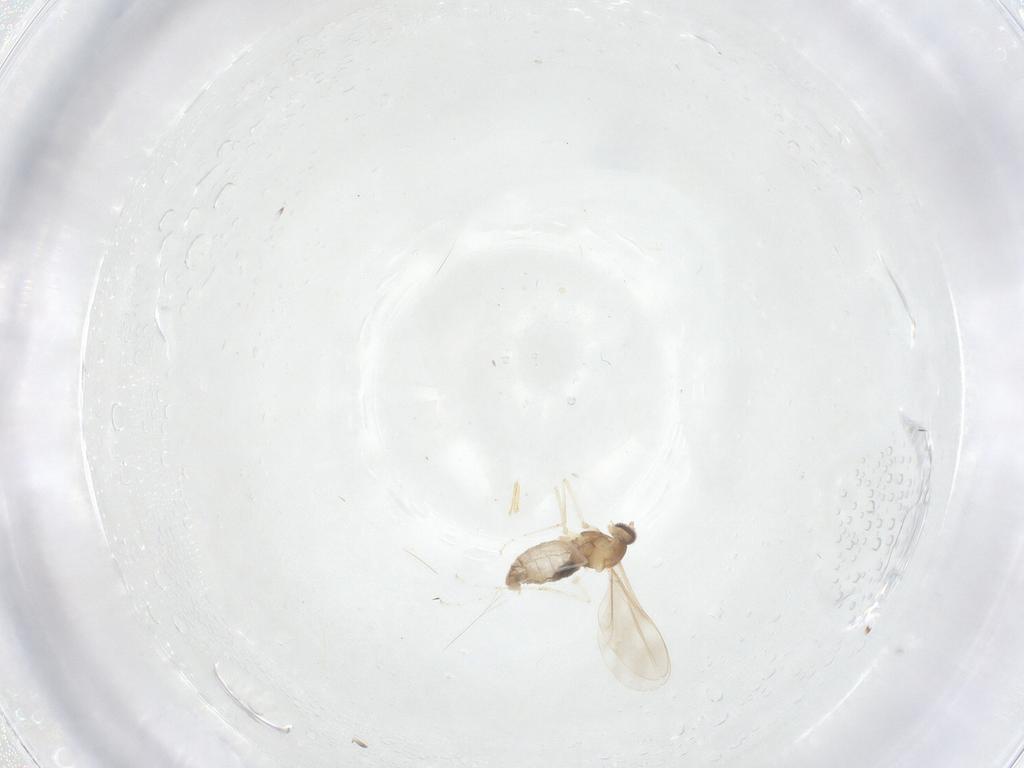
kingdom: Animalia
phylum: Arthropoda
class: Insecta
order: Diptera
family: Cecidomyiidae
